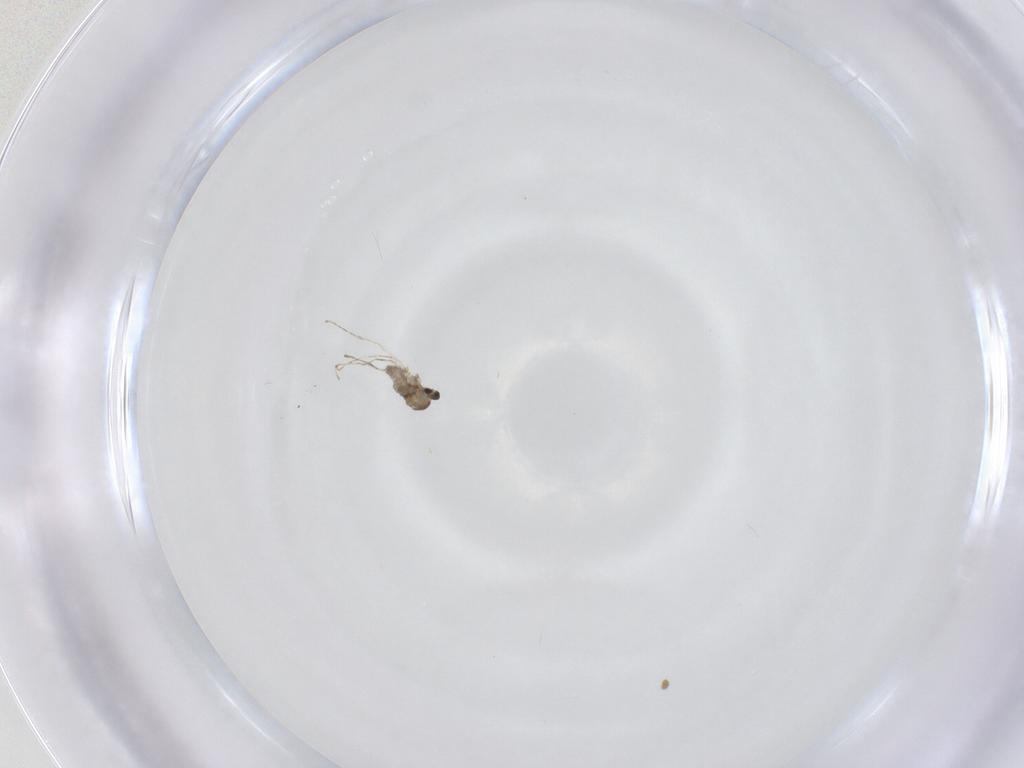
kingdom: Animalia
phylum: Arthropoda
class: Insecta
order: Diptera
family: Cecidomyiidae
